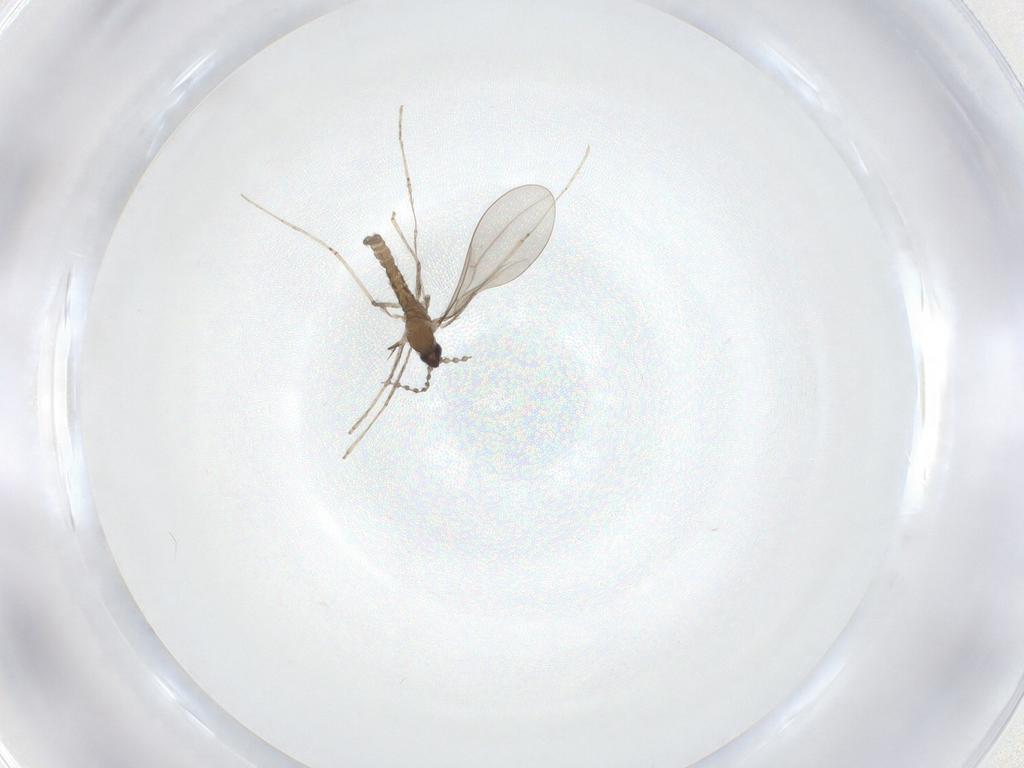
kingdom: Animalia
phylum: Arthropoda
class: Insecta
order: Diptera
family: Cecidomyiidae
